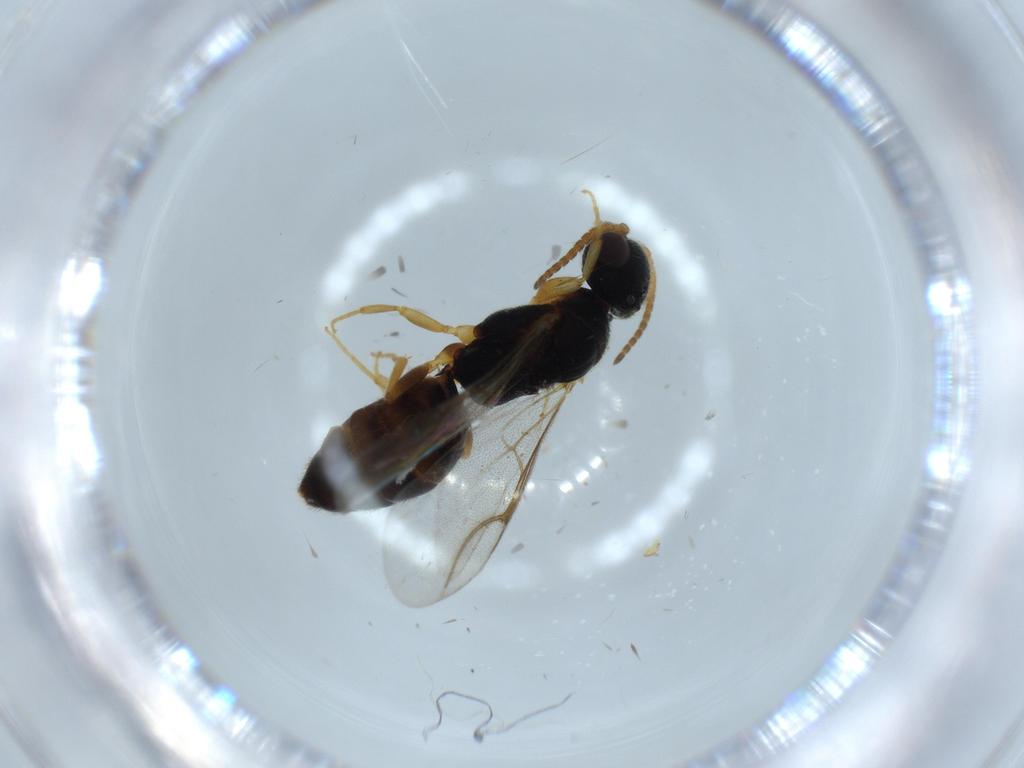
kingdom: Animalia
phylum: Arthropoda
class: Insecta
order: Hymenoptera
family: Bethylidae
